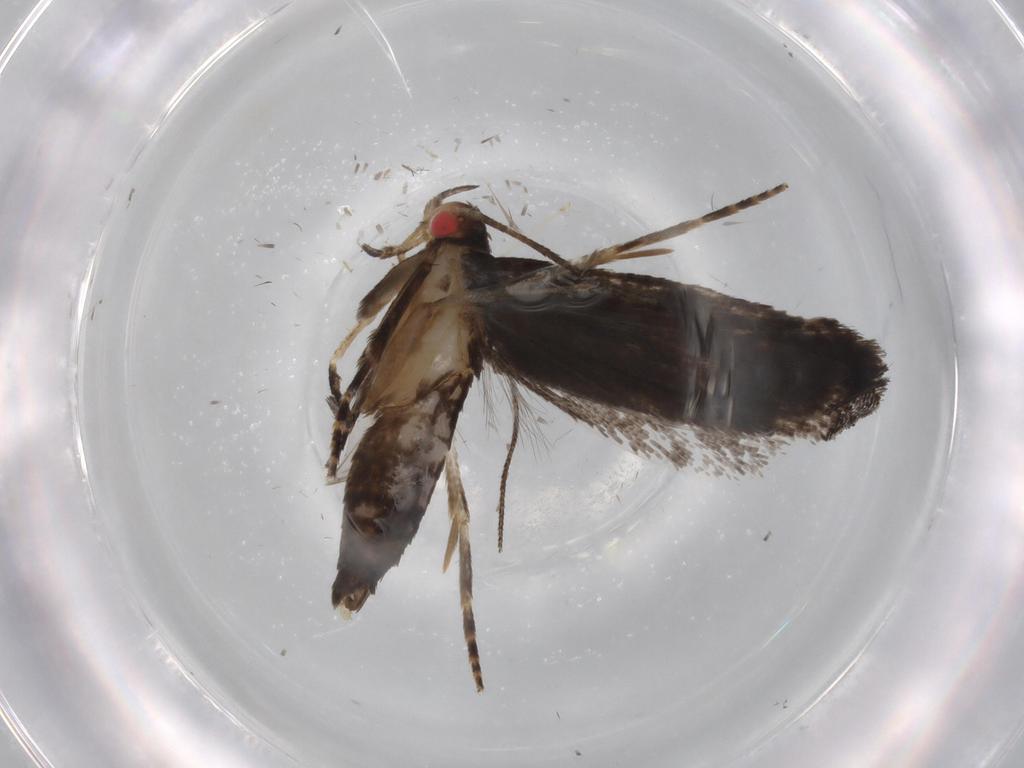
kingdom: Animalia
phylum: Arthropoda
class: Insecta
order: Lepidoptera
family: Gelechiidae
